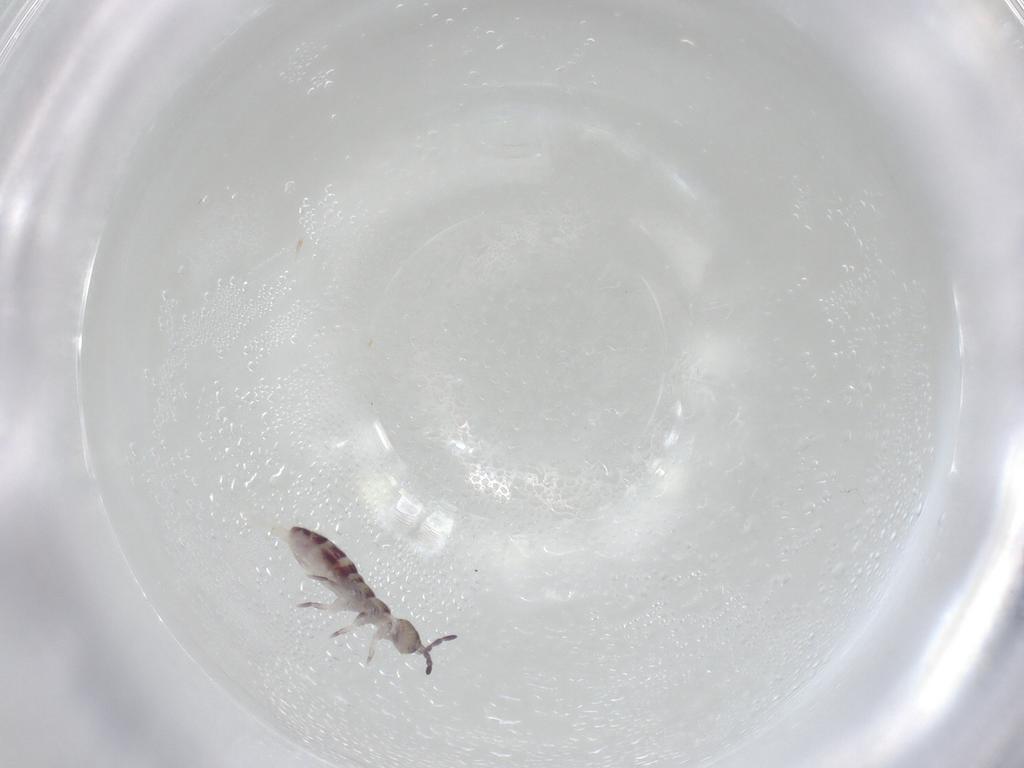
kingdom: Animalia
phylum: Arthropoda
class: Collembola
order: Entomobryomorpha
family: Isotomidae
